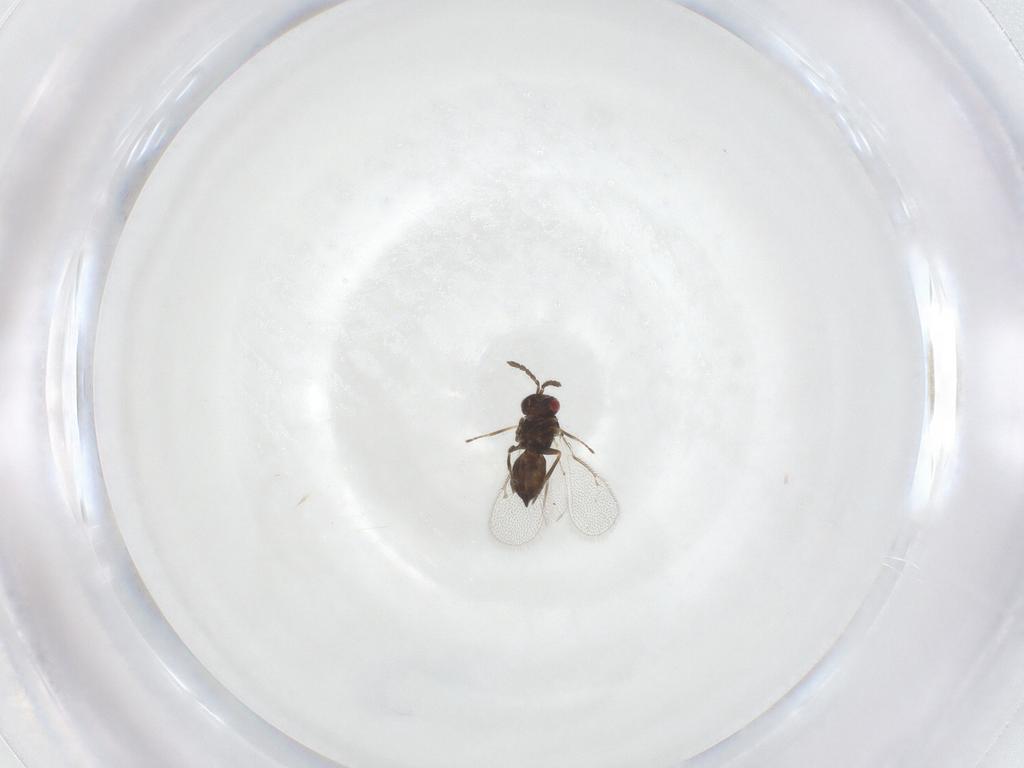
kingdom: Animalia
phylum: Arthropoda
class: Insecta
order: Hymenoptera
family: Eulophidae
